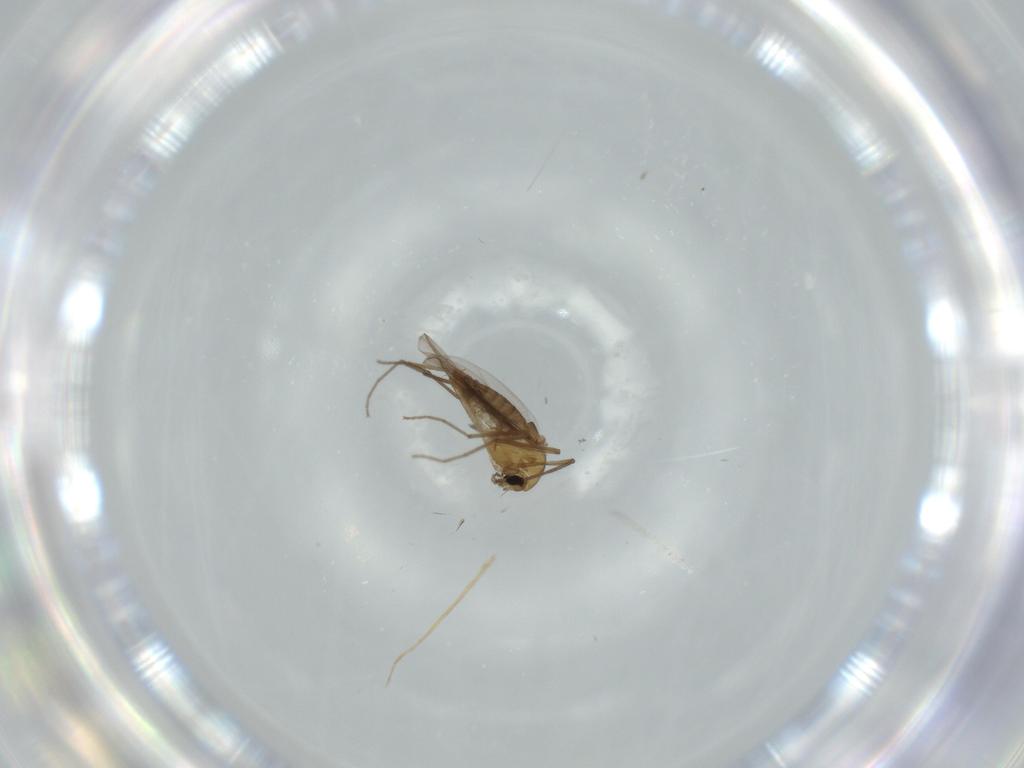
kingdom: Animalia
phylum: Arthropoda
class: Insecta
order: Diptera
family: Chironomidae
